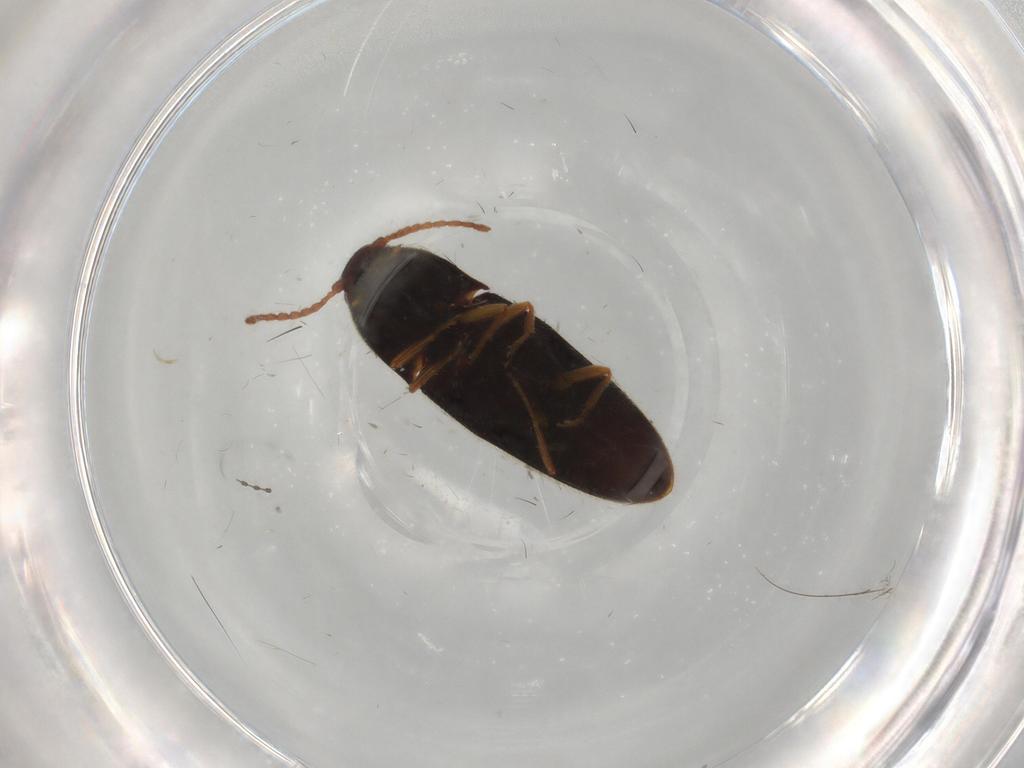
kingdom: Animalia
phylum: Arthropoda
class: Insecta
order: Coleoptera
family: Elateridae
